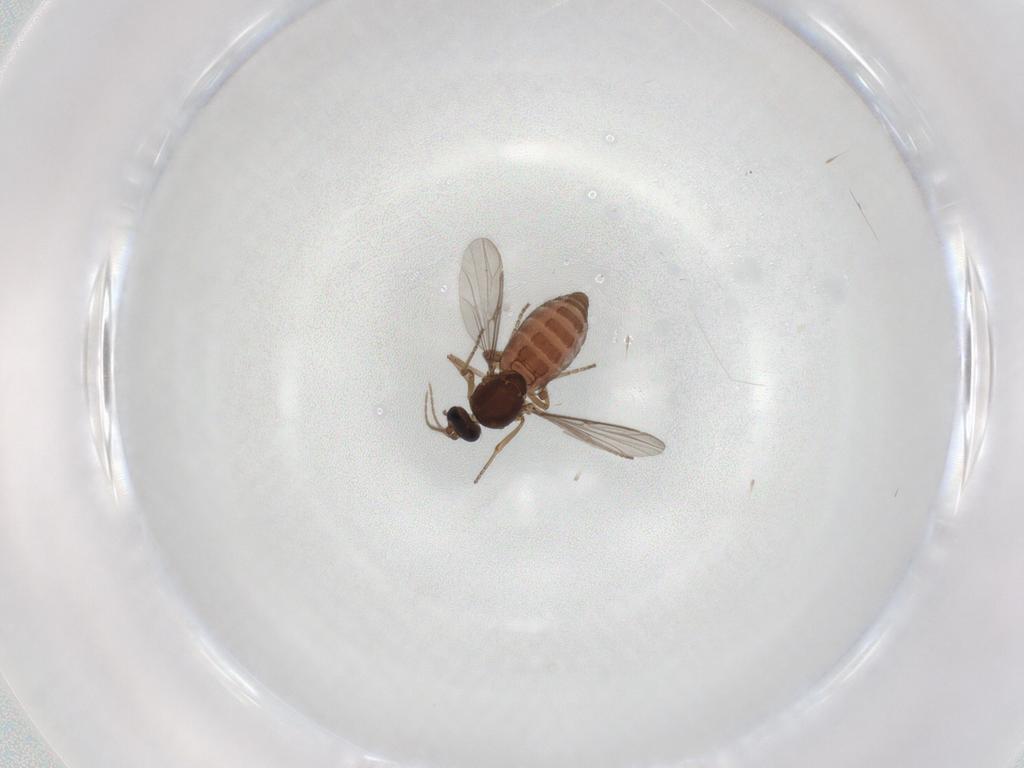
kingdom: Animalia
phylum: Arthropoda
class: Insecta
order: Diptera
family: Ceratopogonidae
